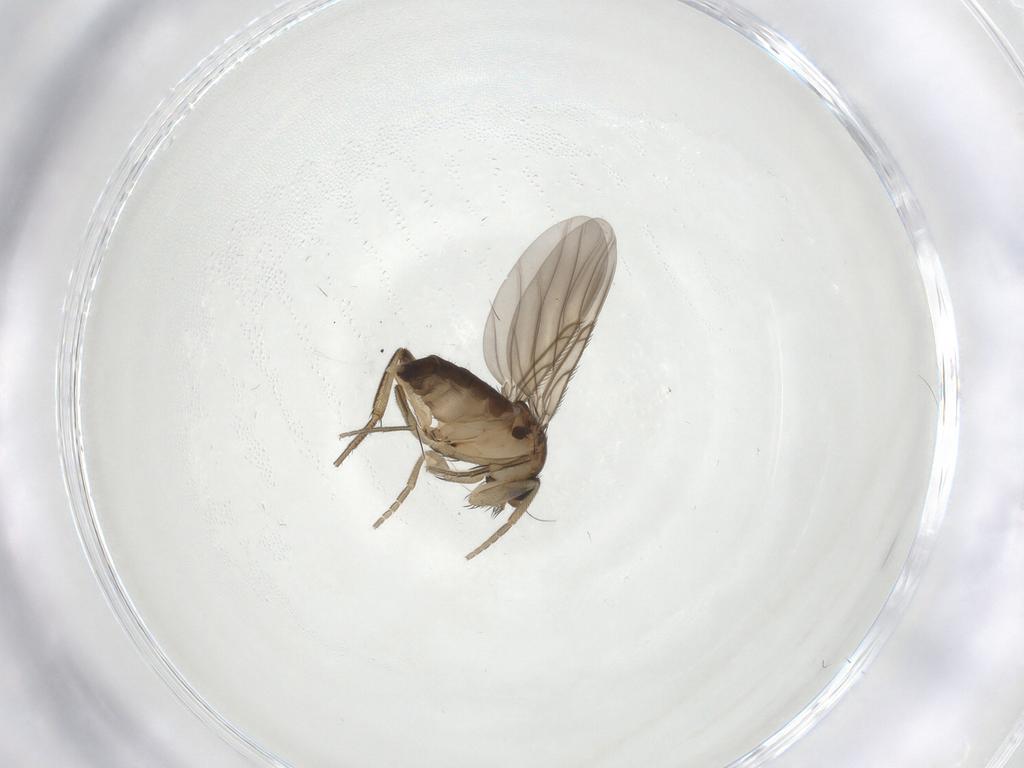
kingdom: Animalia
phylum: Arthropoda
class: Insecta
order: Diptera
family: Phoridae
